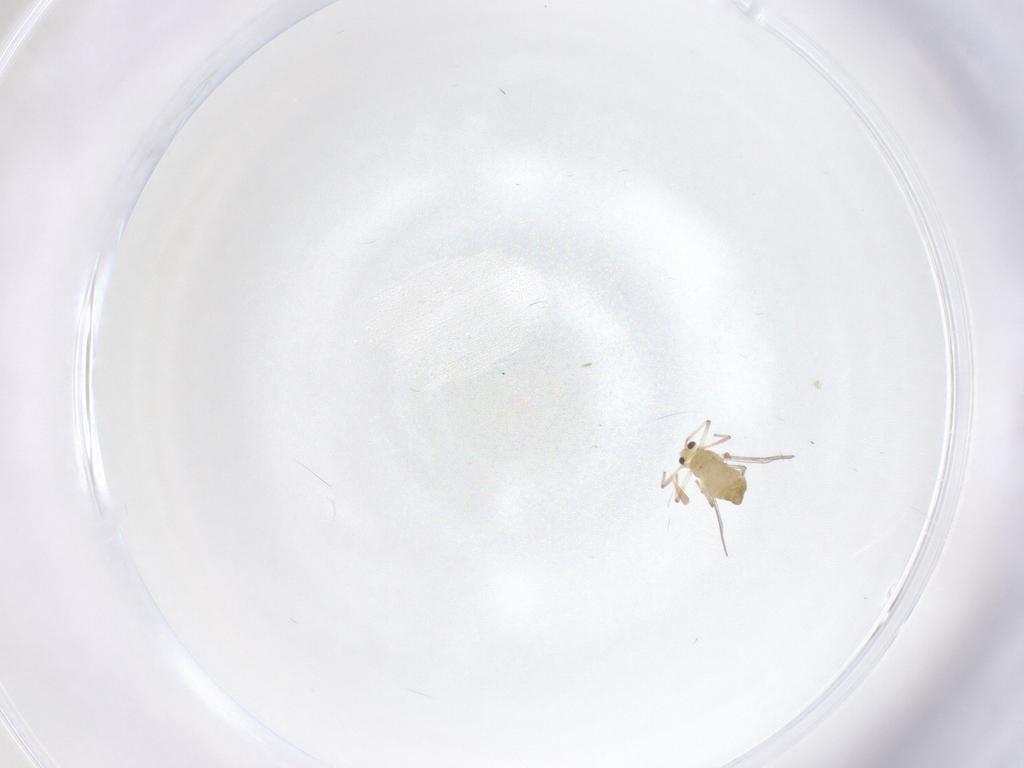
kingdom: Animalia
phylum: Arthropoda
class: Insecta
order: Diptera
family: Chironomidae
